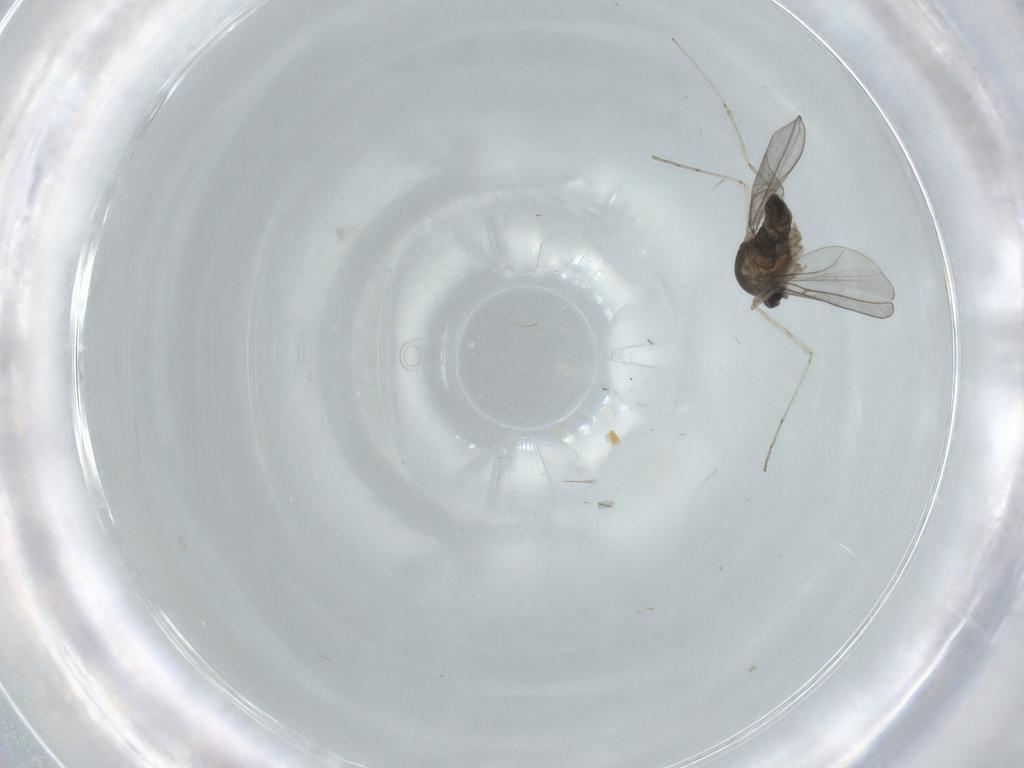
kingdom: Animalia
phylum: Arthropoda
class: Insecta
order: Diptera
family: Cecidomyiidae
